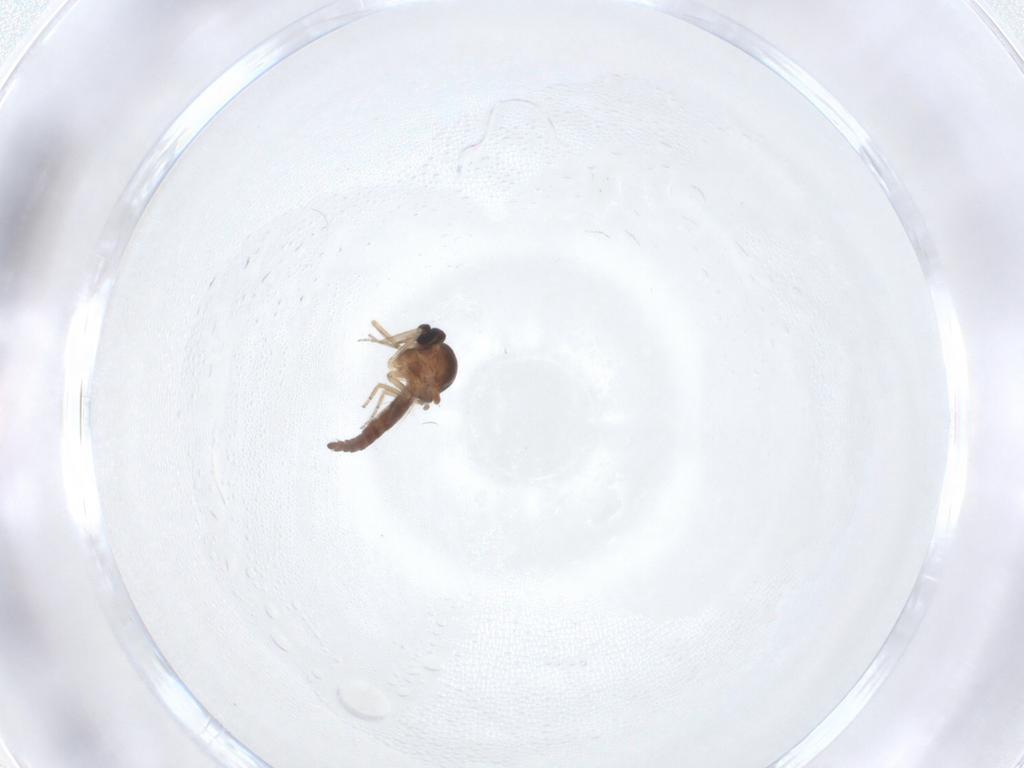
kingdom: Animalia
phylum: Arthropoda
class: Insecta
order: Diptera
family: Ceratopogonidae
